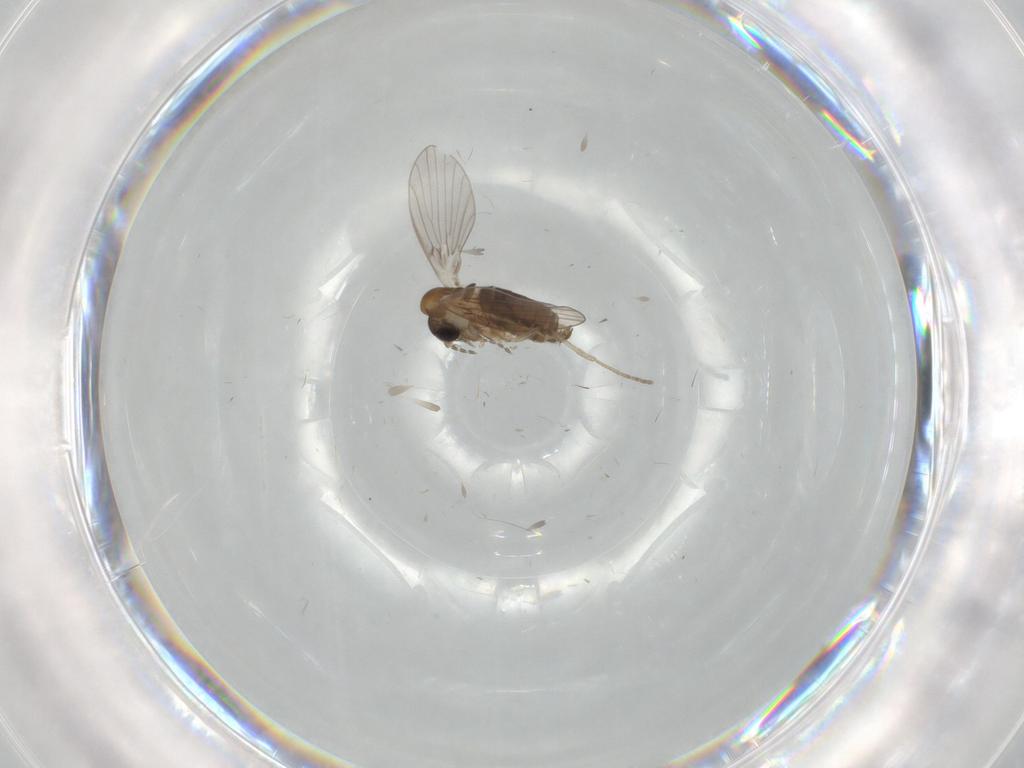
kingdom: Animalia
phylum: Arthropoda
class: Insecta
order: Diptera
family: Psychodidae
